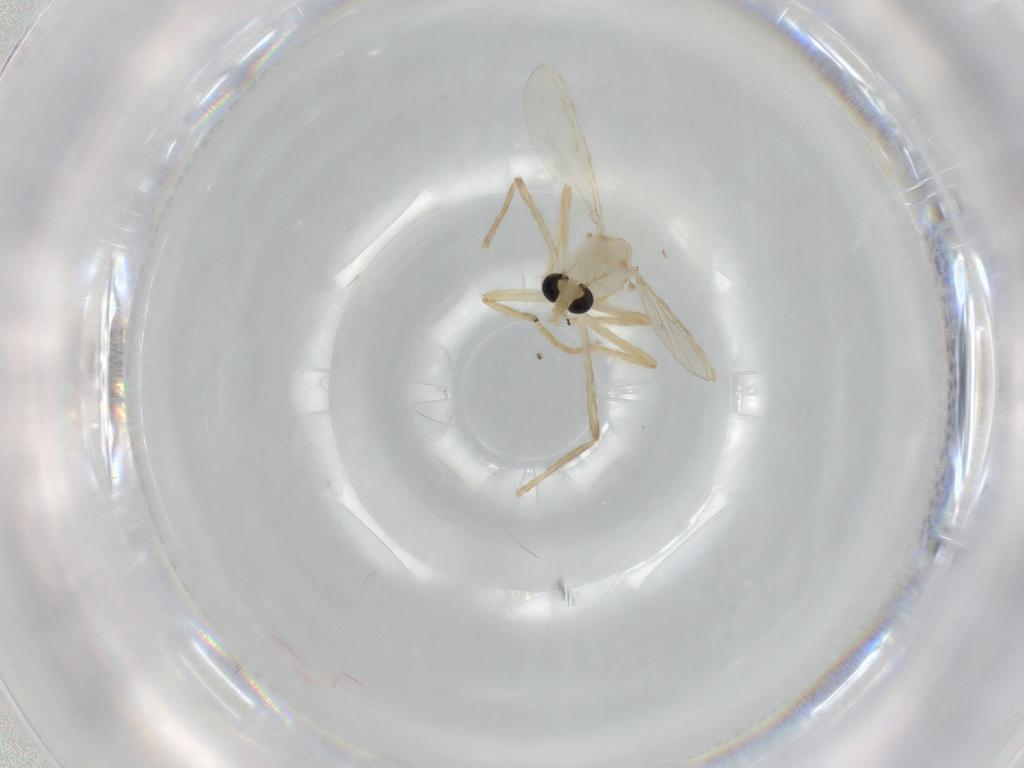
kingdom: Animalia
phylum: Arthropoda
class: Insecta
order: Diptera
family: Chironomidae
